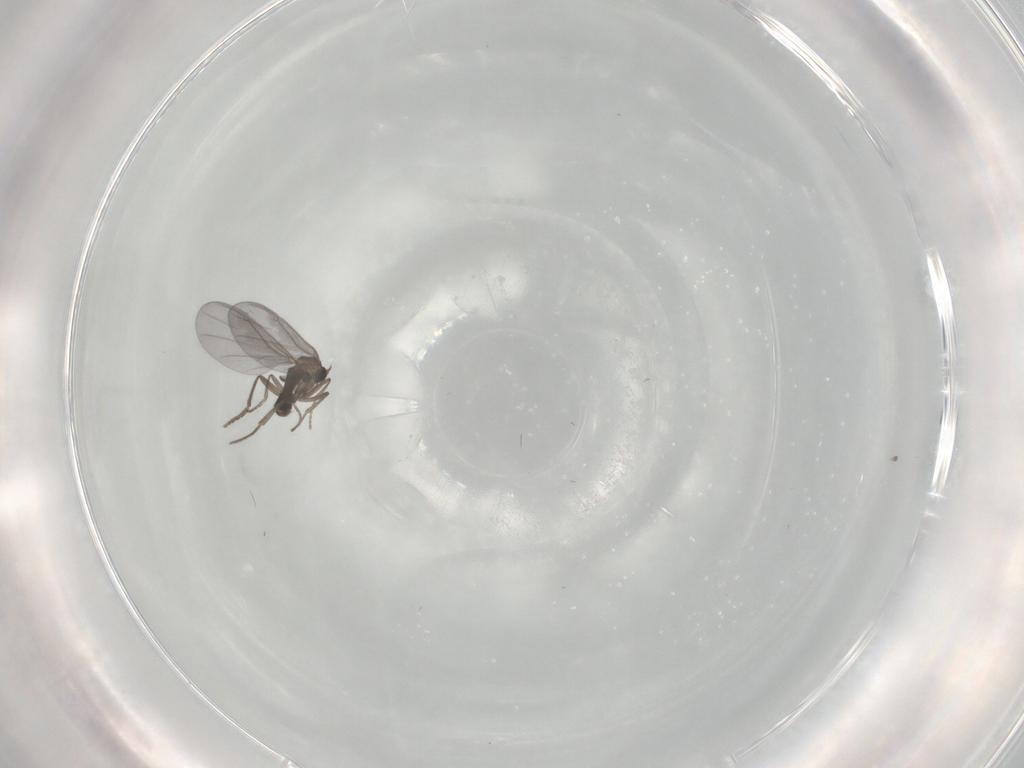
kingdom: Animalia
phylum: Arthropoda
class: Insecta
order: Diptera
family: Phoridae
